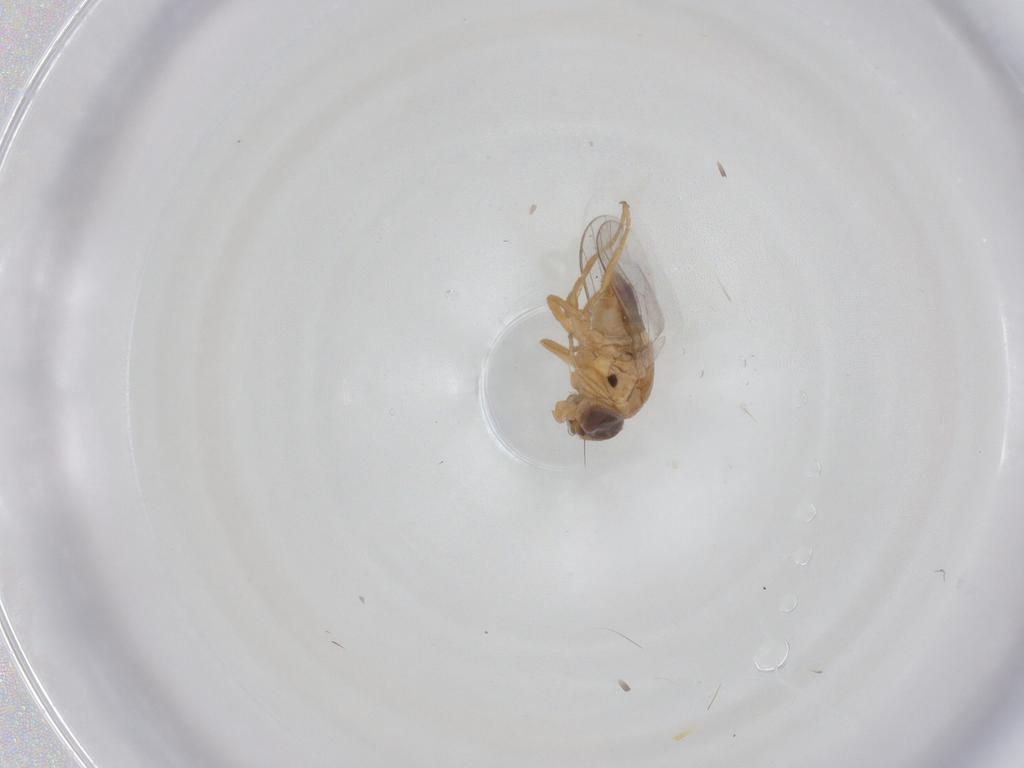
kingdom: Animalia
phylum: Arthropoda
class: Insecta
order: Diptera
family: Chloropidae
